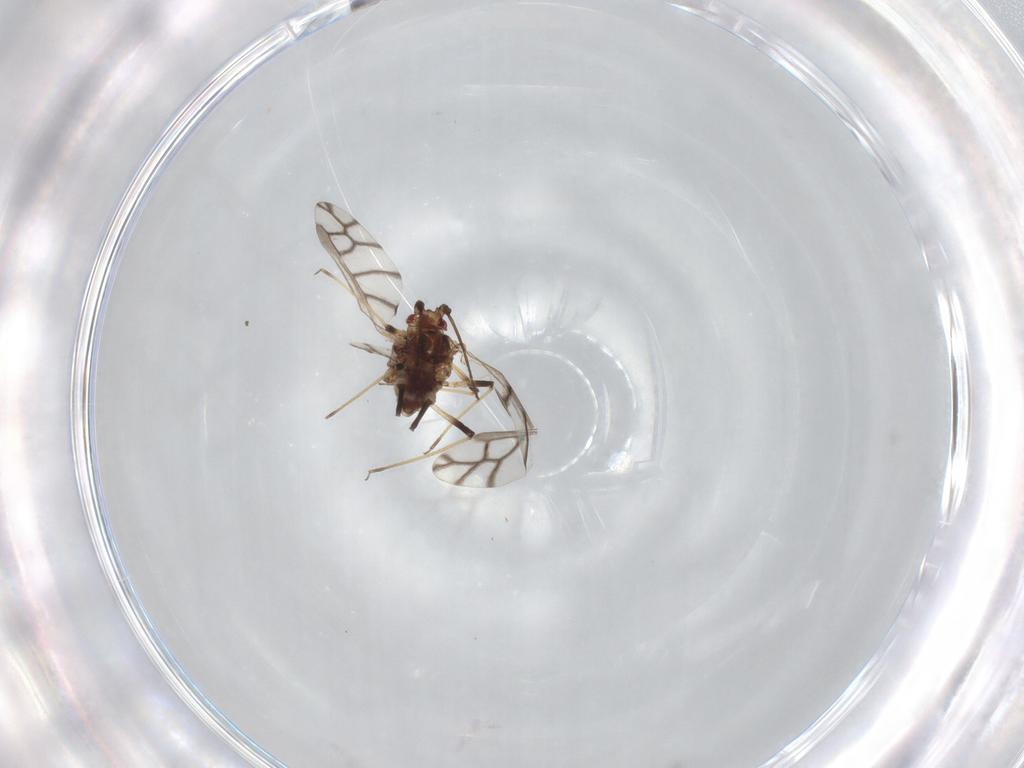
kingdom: Animalia
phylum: Arthropoda
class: Insecta
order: Hemiptera
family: Aphididae
